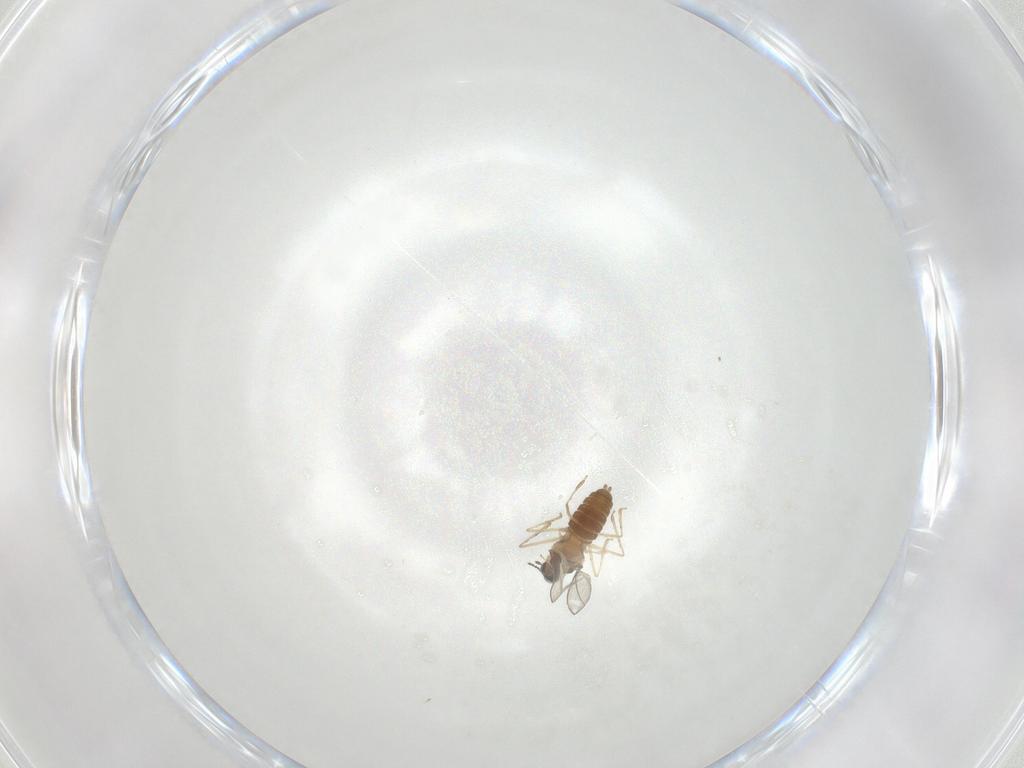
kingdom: Animalia
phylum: Arthropoda
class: Insecta
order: Diptera
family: Cecidomyiidae
